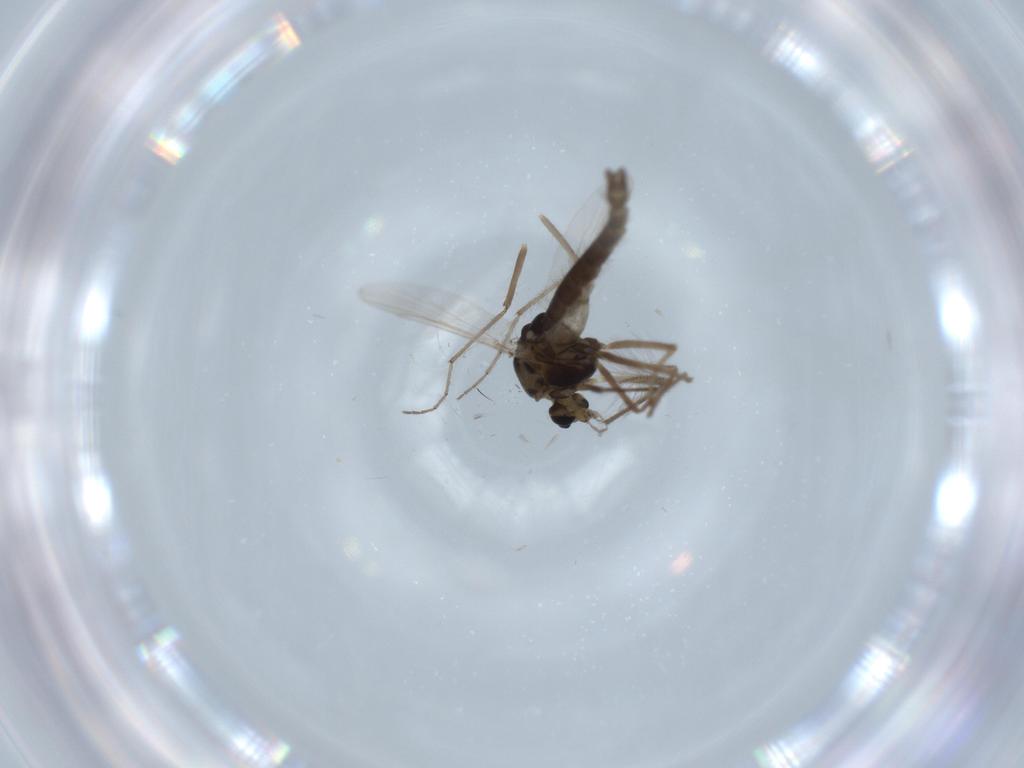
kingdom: Animalia
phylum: Arthropoda
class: Insecta
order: Diptera
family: Chironomidae
